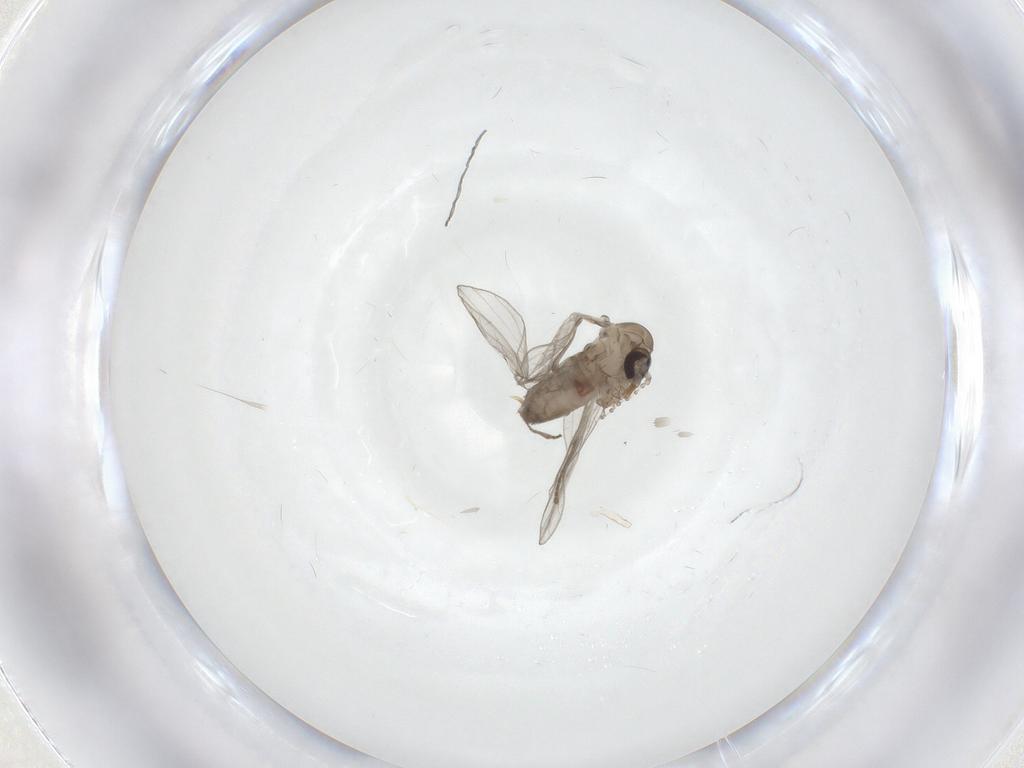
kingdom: Animalia
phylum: Arthropoda
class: Insecta
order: Diptera
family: Psychodidae
